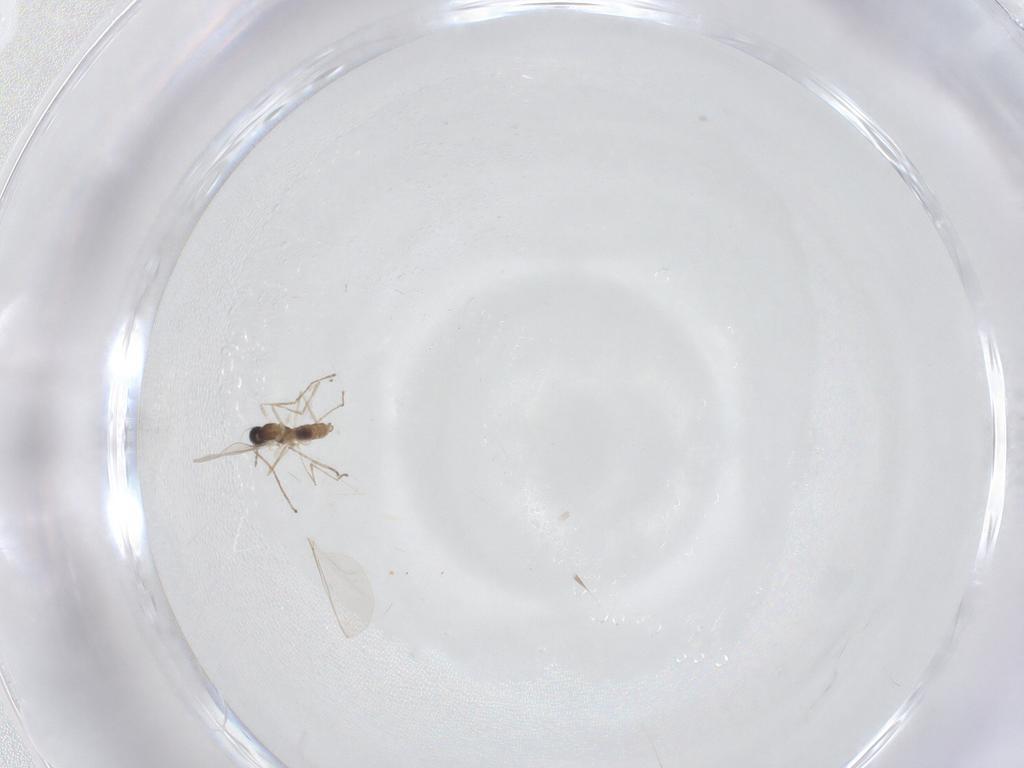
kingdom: Animalia
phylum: Arthropoda
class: Insecta
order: Diptera
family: Cecidomyiidae
